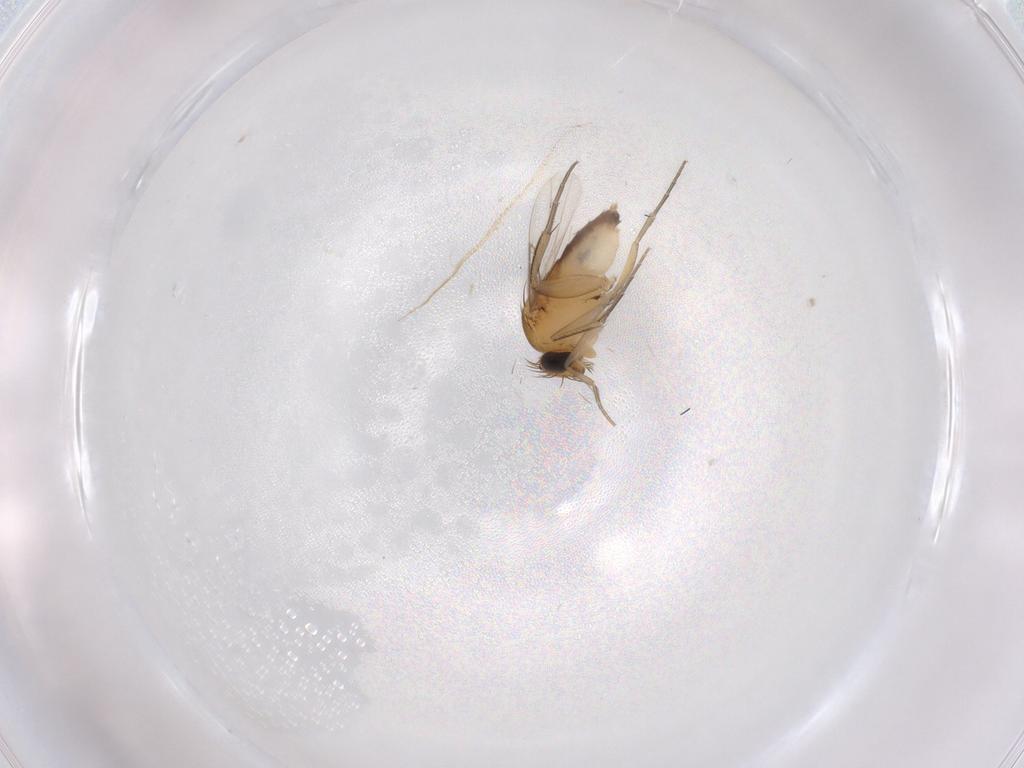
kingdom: Animalia
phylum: Arthropoda
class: Insecta
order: Diptera
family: Phoridae
